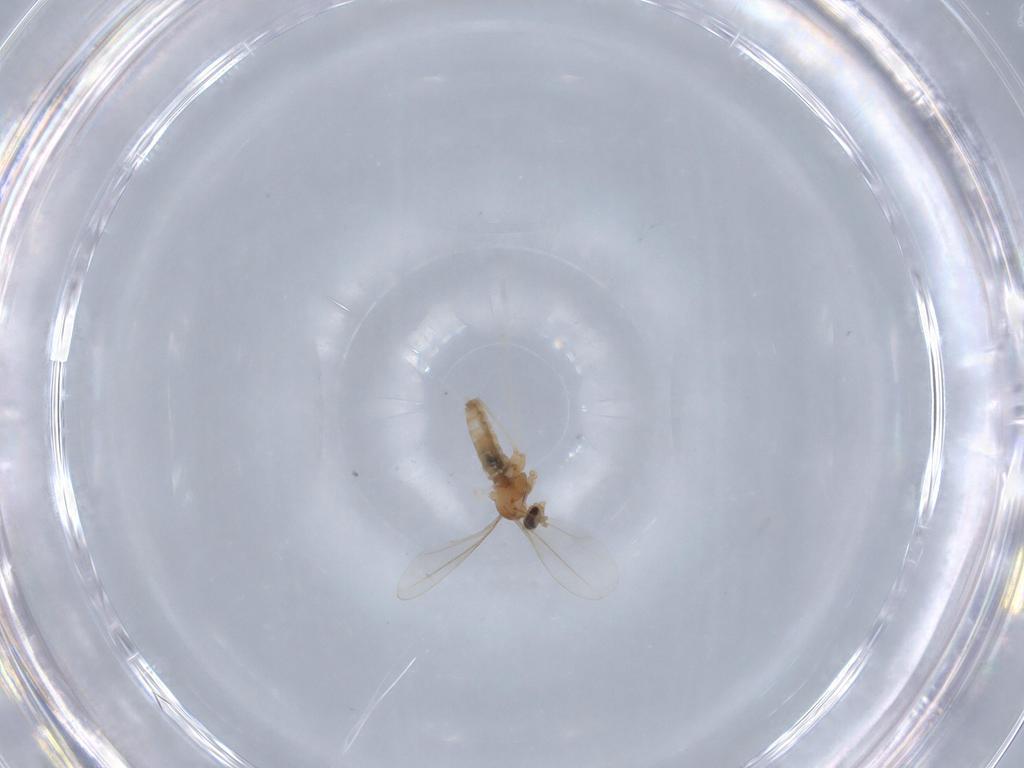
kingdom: Animalia
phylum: Arthropoda
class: Insecta
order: Diptera
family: Cecidomyiidae
